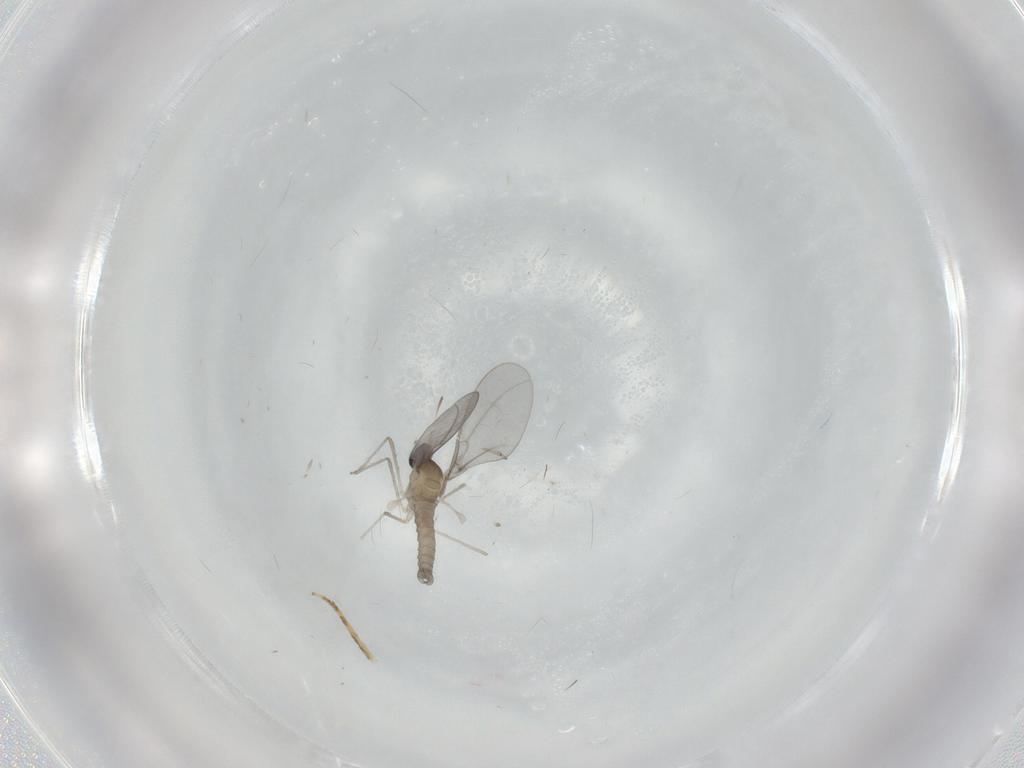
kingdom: Animalia
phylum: Arthropoda
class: Insecta
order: Diptera
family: Cecidomyiidae
